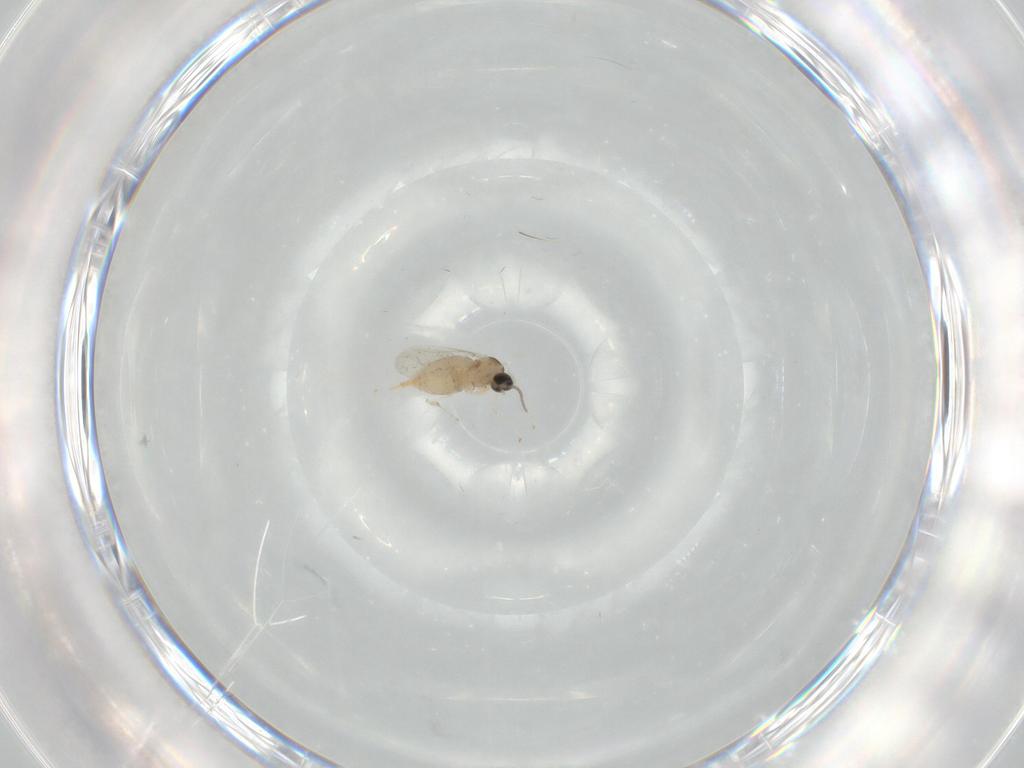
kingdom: Animalia
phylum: Arthropoda
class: Insecta
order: Diptera
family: Cecidomyiidae
